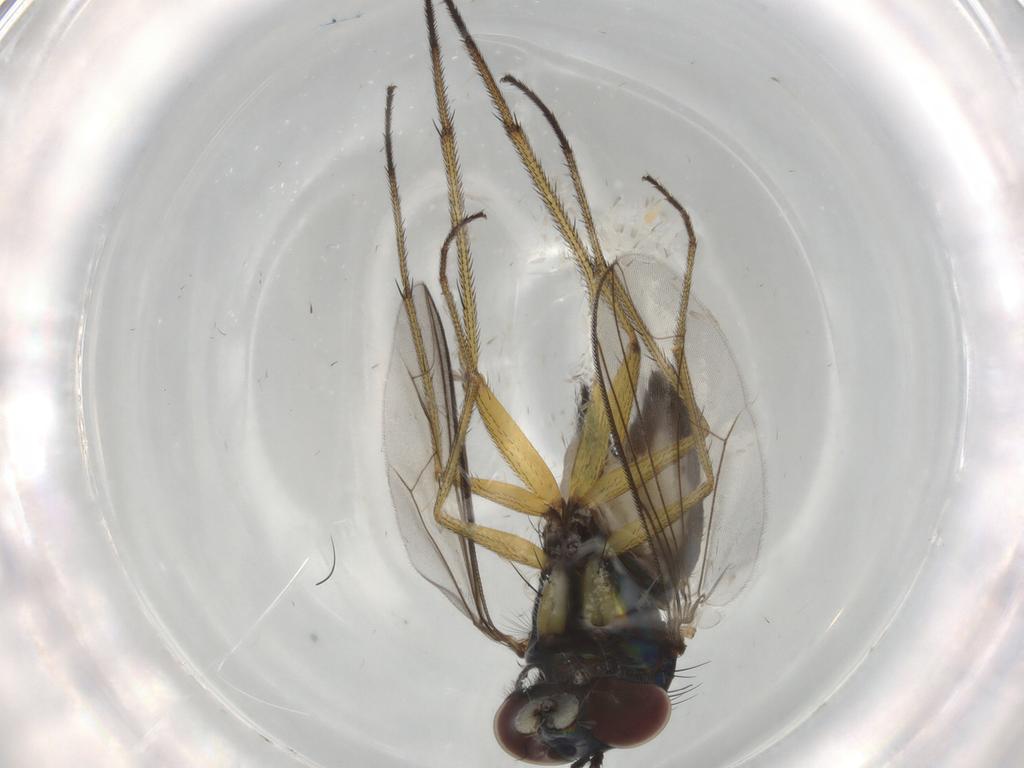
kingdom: Animalia
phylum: Arthropoda
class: Insecta
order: Diptera
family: Dolichopodidae
